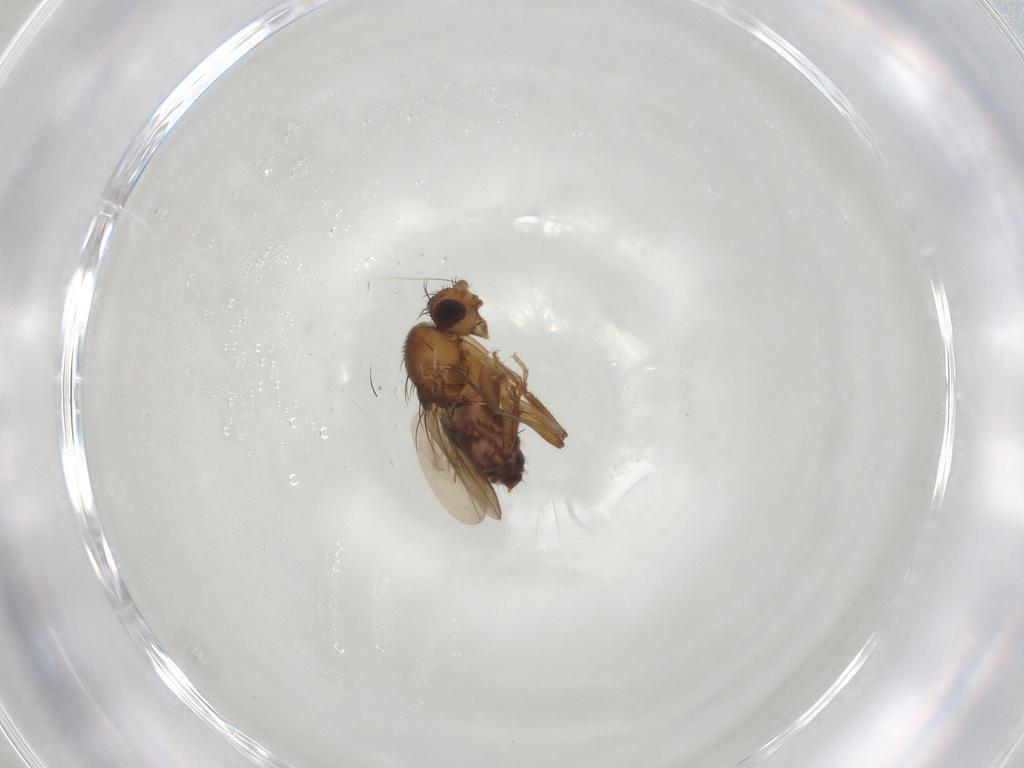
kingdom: Animalia
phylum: Arthropoda
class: Insecta
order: Diptera
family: Sphaeroceridae
